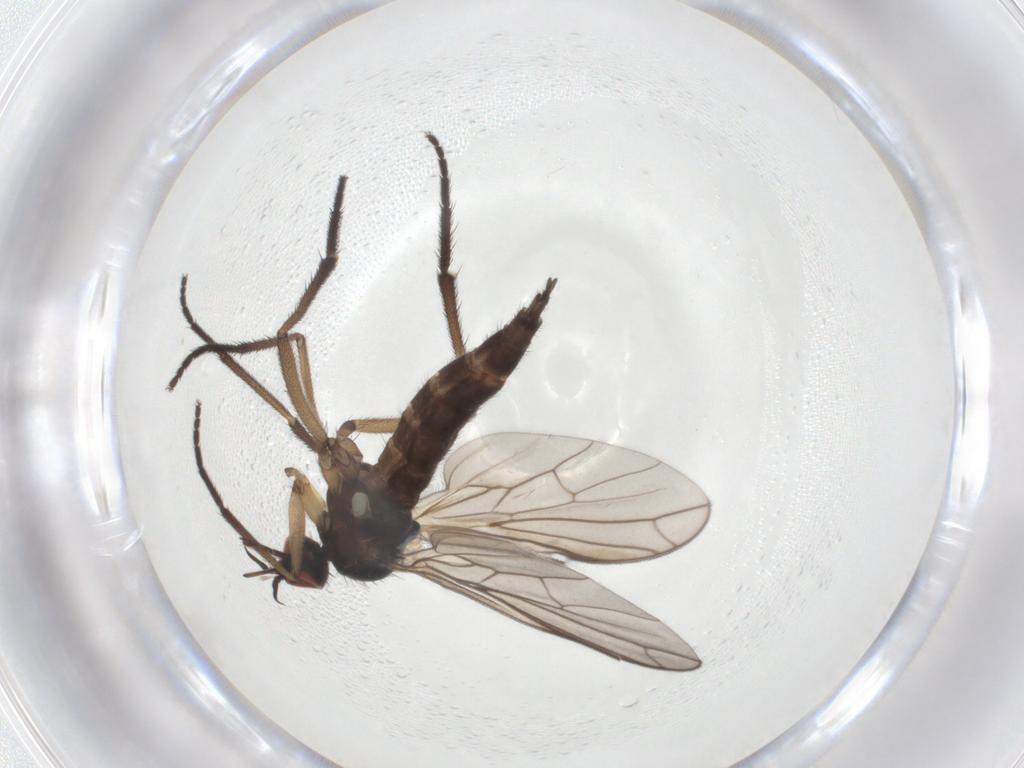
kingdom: Animalia
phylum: Arthropoda
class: Insecta
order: Diptera
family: Empididae
